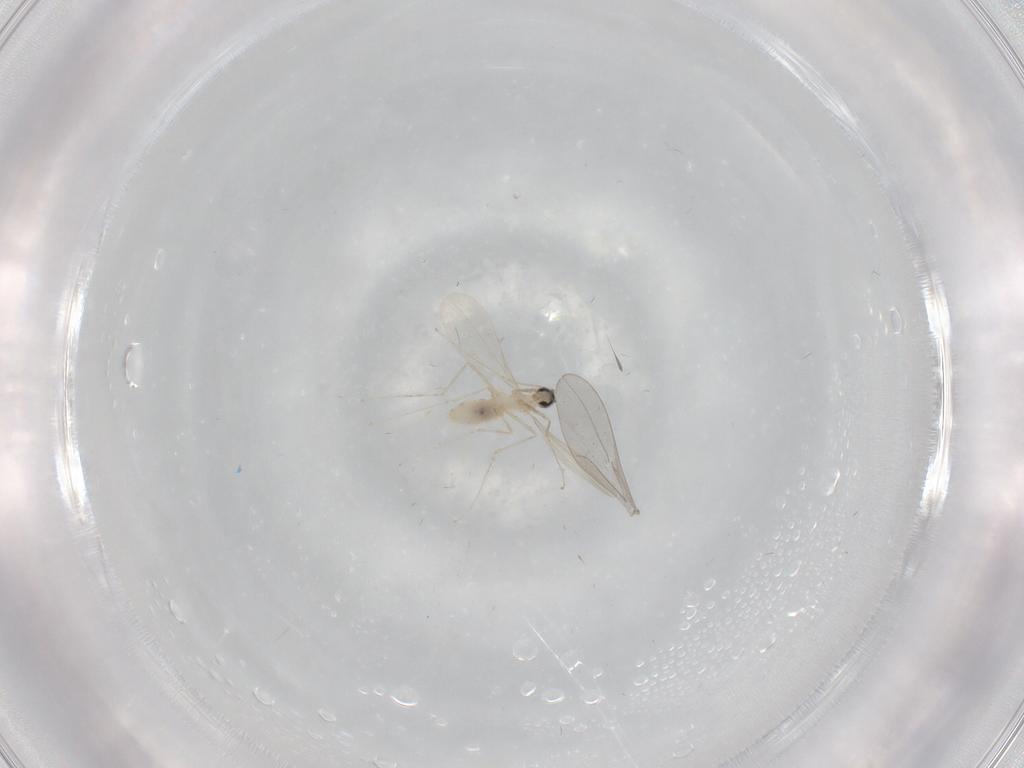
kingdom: Animalia
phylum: Arthropoda
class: Insecta
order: Diptera
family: Cecidomyiidae
